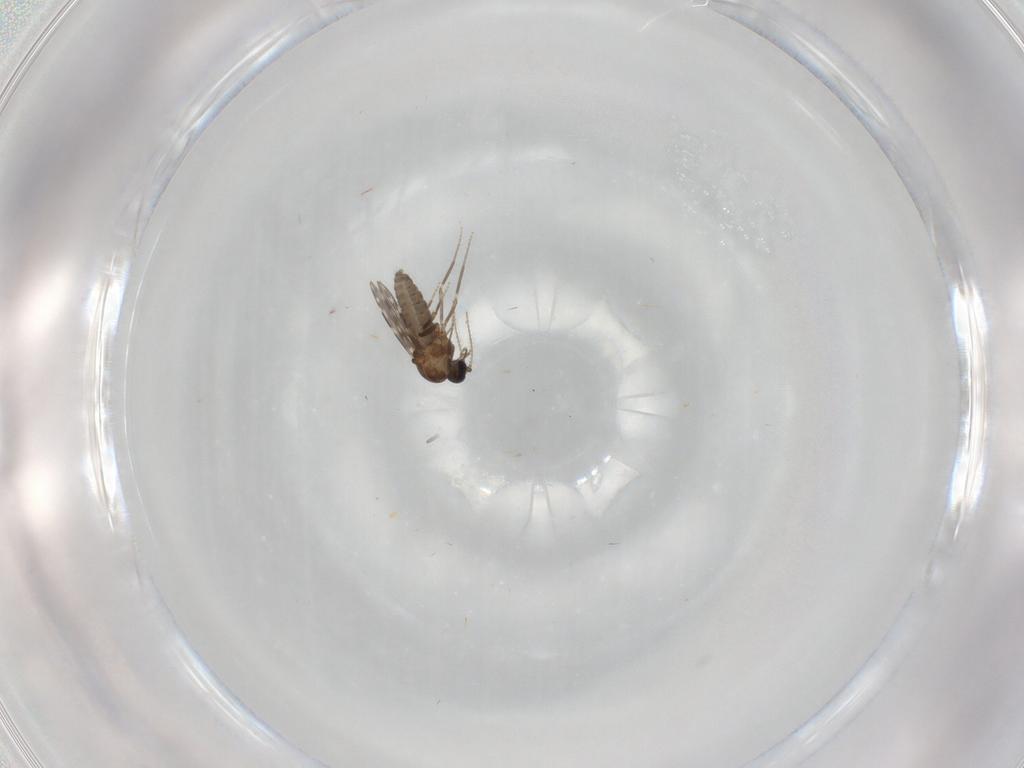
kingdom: Animalia
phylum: Arthropoda
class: Insecta
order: Diptera
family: Ceratopogonidae
